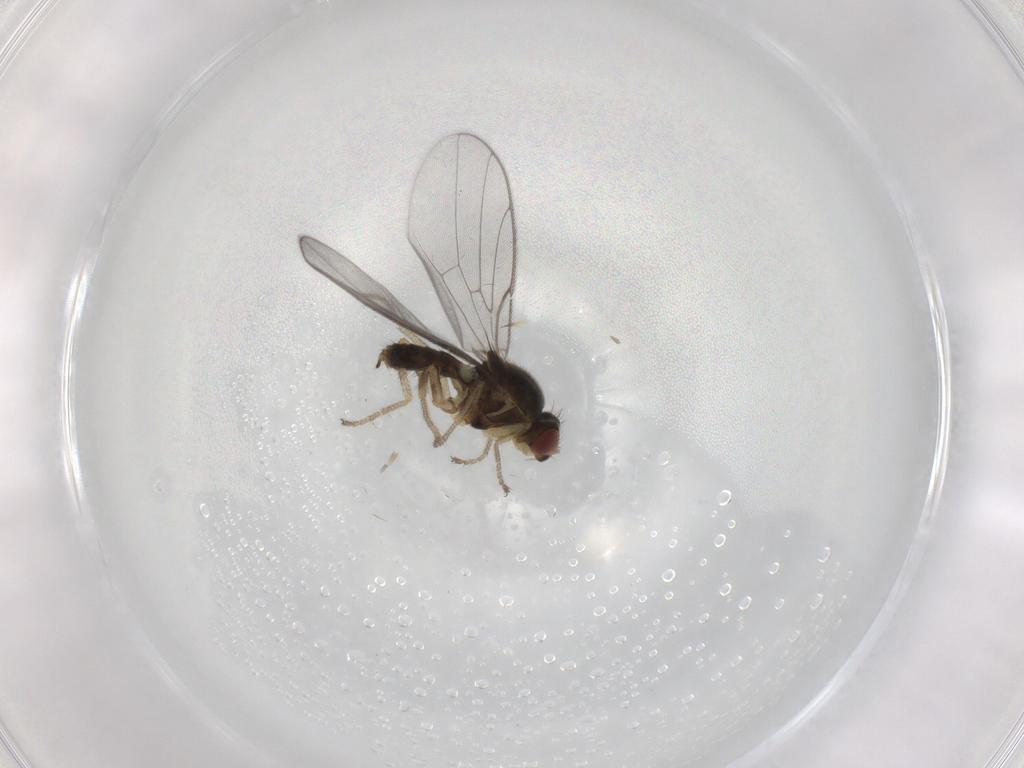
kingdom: Animalia
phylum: Arthropoda
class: Insecta
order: Diptera
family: Chloropidae
